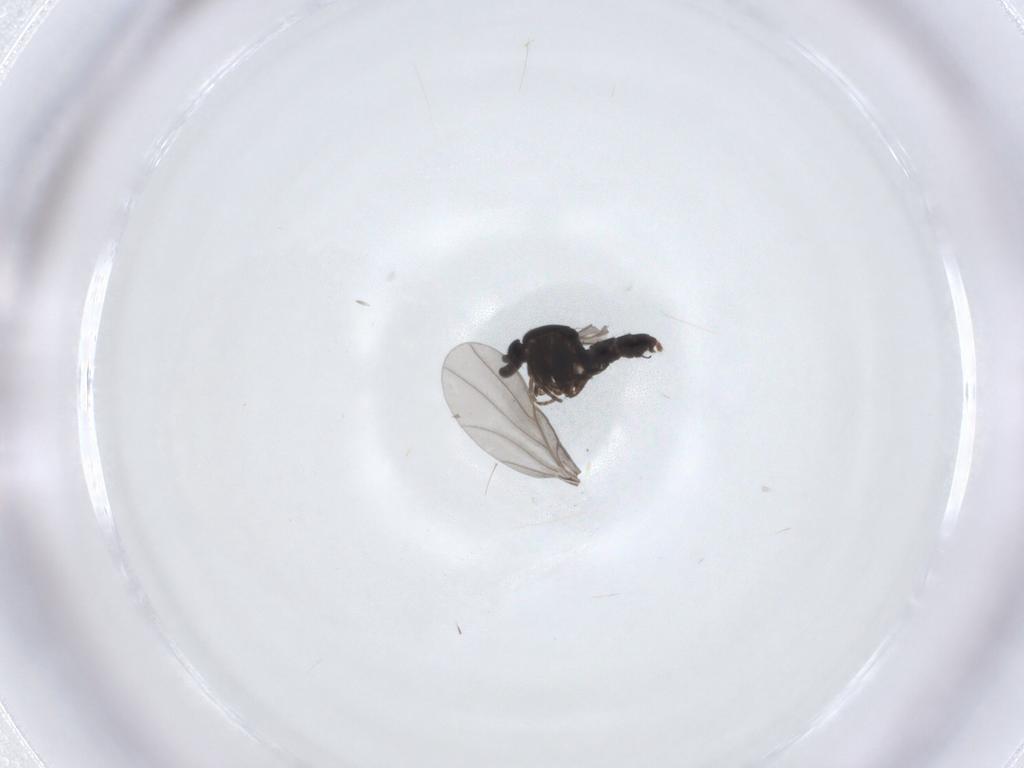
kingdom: Animalia
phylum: Arthropoda
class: Insecta
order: Diptera
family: Phoridae
